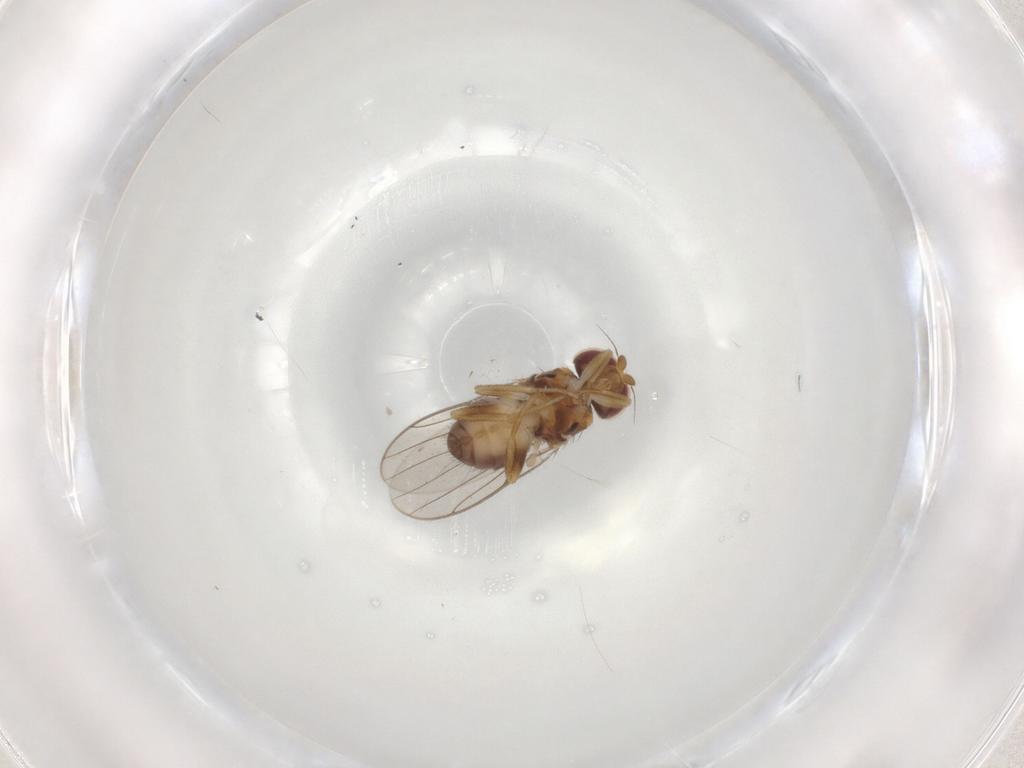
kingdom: Animalia
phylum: Arthropoda
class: Insecta
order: Diptera
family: Chloropidae
